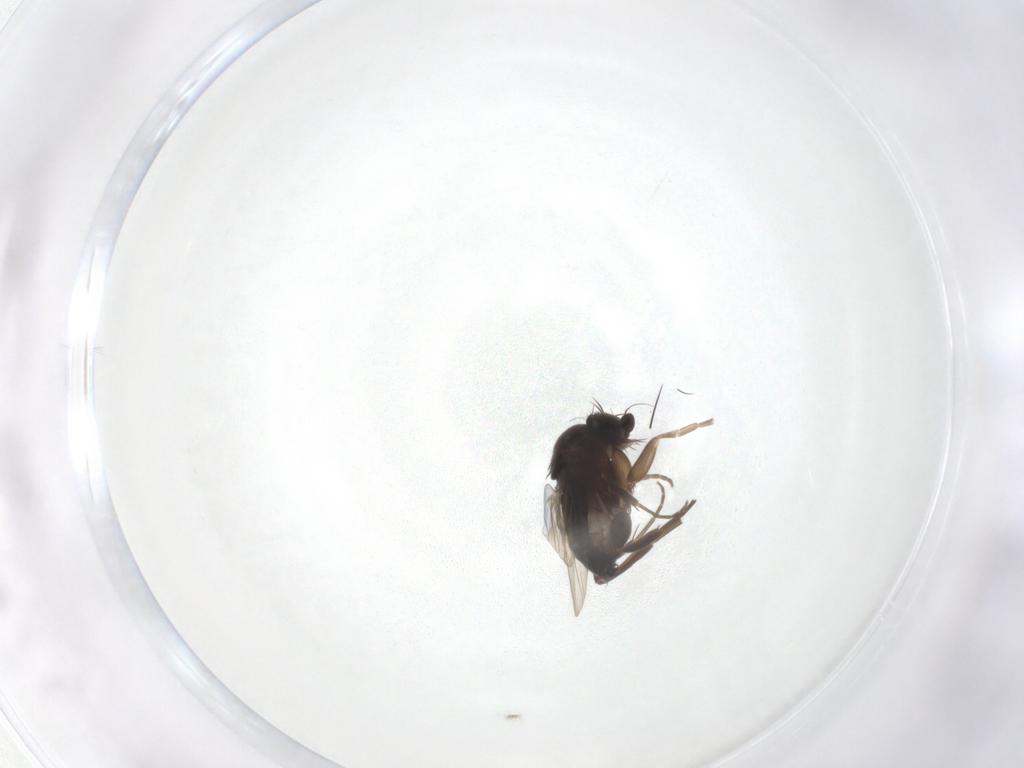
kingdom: Animalia
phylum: Arthropoda
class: Insecta
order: Diptera
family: Phoridae
